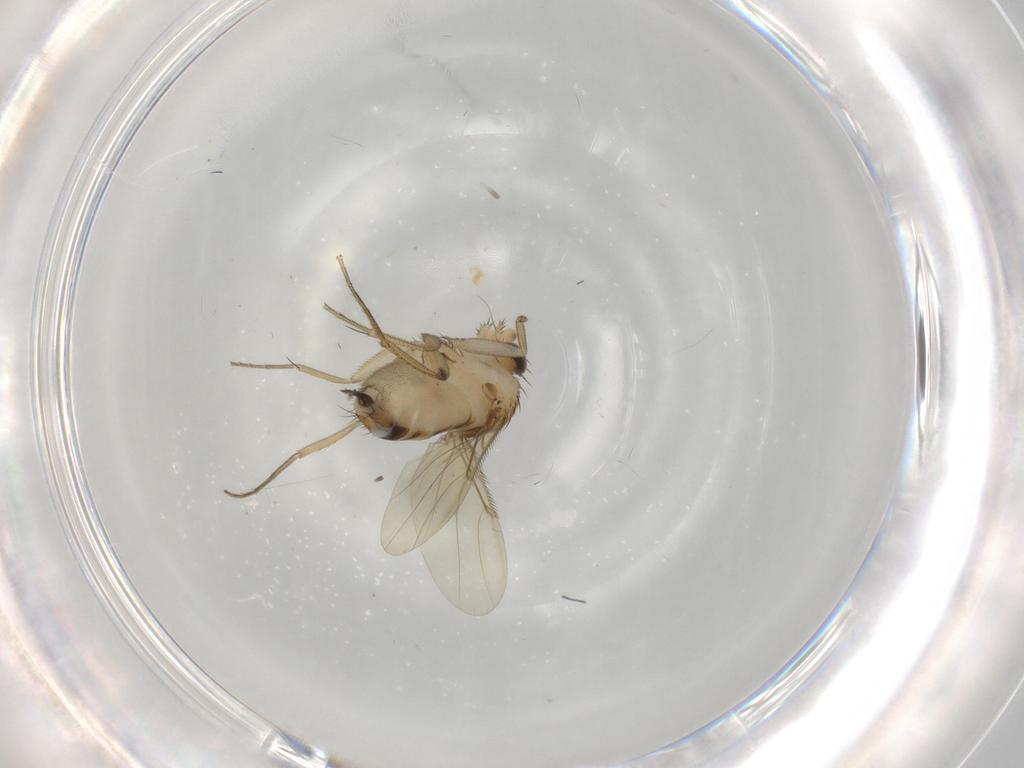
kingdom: Animalia
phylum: Arthropoda
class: Insecta
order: Diptera
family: Phoridae
